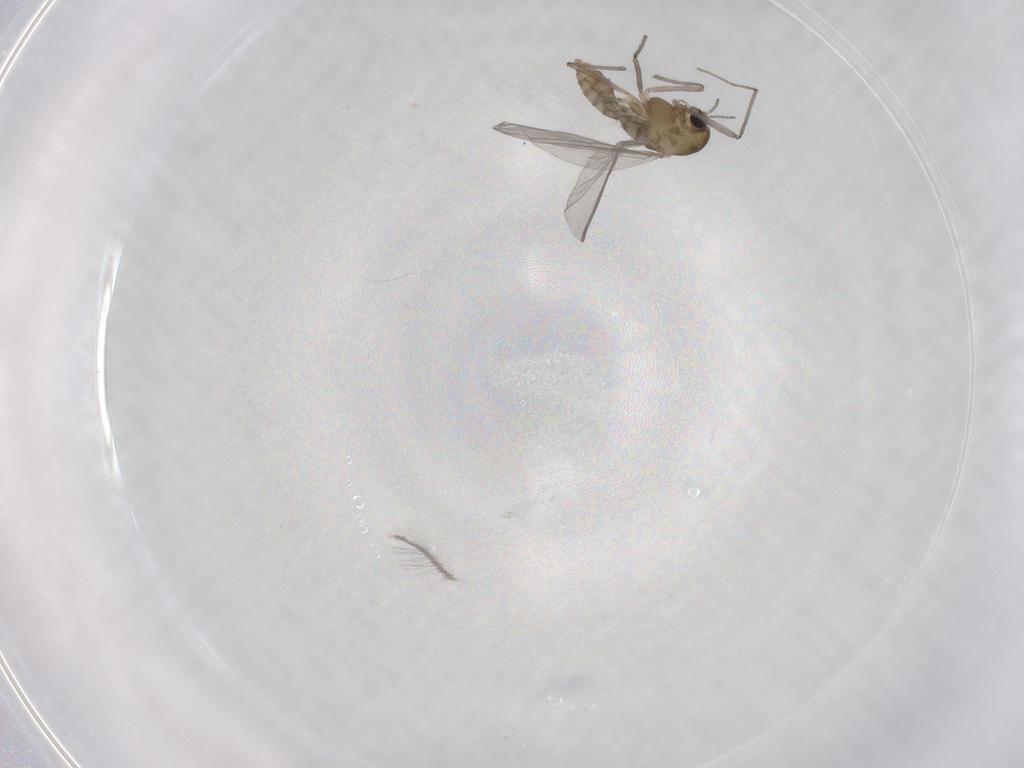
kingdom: Animalia
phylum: Arthropoda
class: Insecta
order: Diptera
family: Chironomidae
